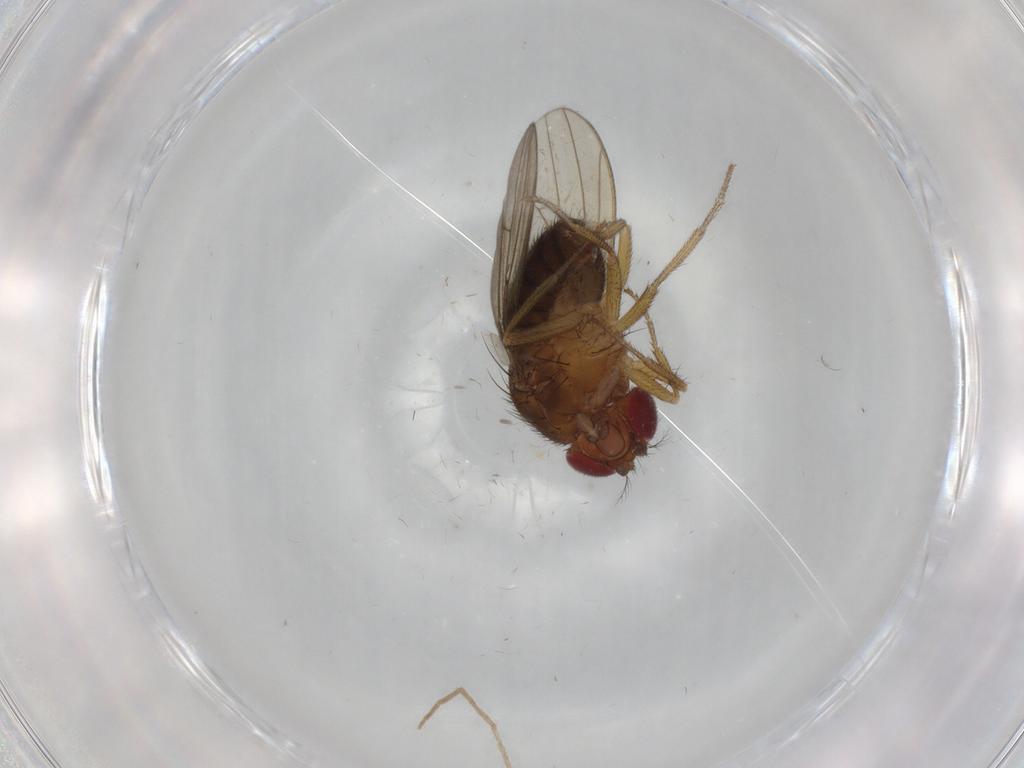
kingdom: Animalia
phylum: Arthropoda
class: Insecta
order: Diptera
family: Drosophilidae
